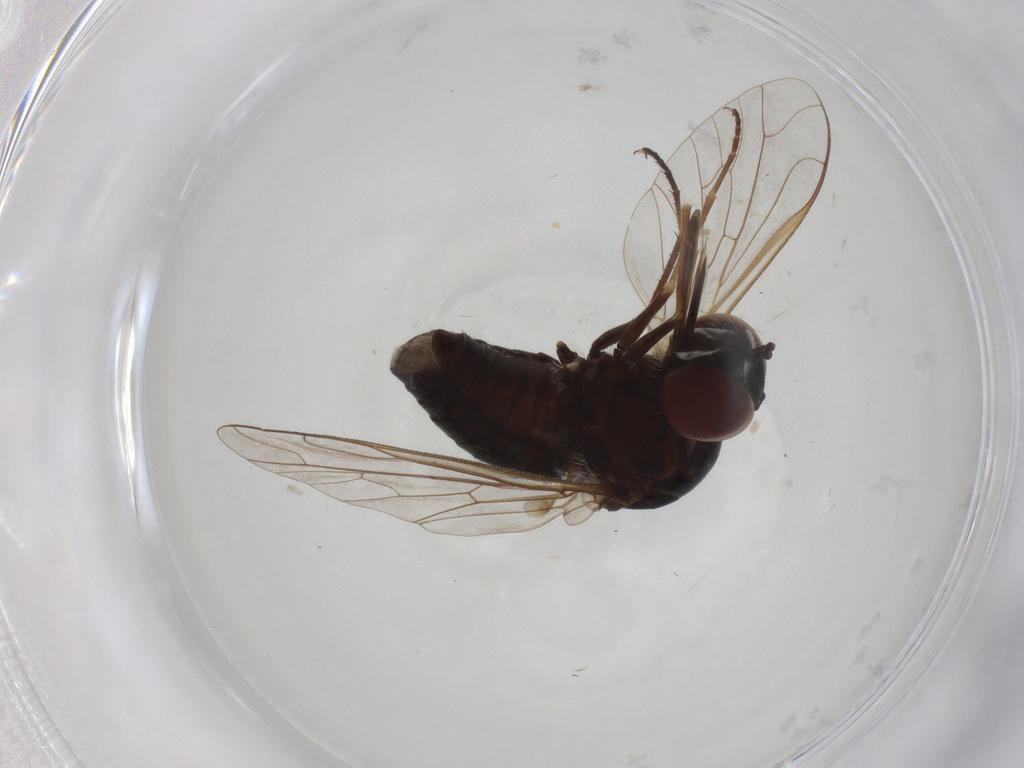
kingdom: Animalia
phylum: Arthropoda
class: Insecta
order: Diptera
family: Bombyliidae
